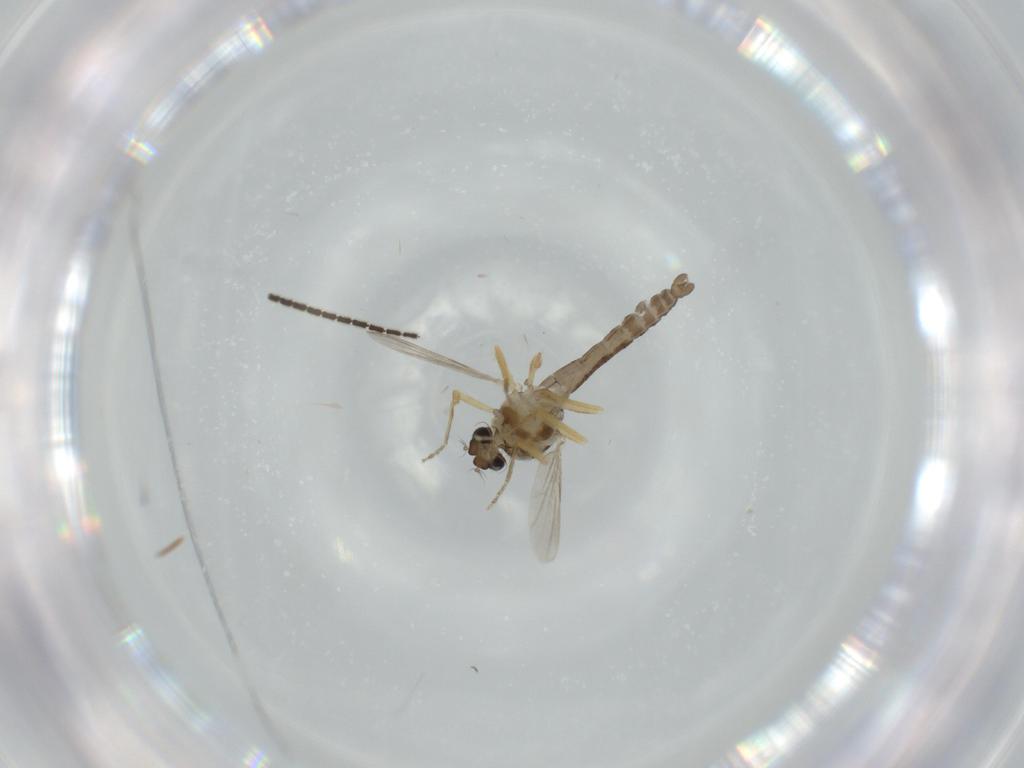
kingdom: Animalia
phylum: Arthropoda
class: Insecta
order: Diptera
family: Ceratopogonidae
